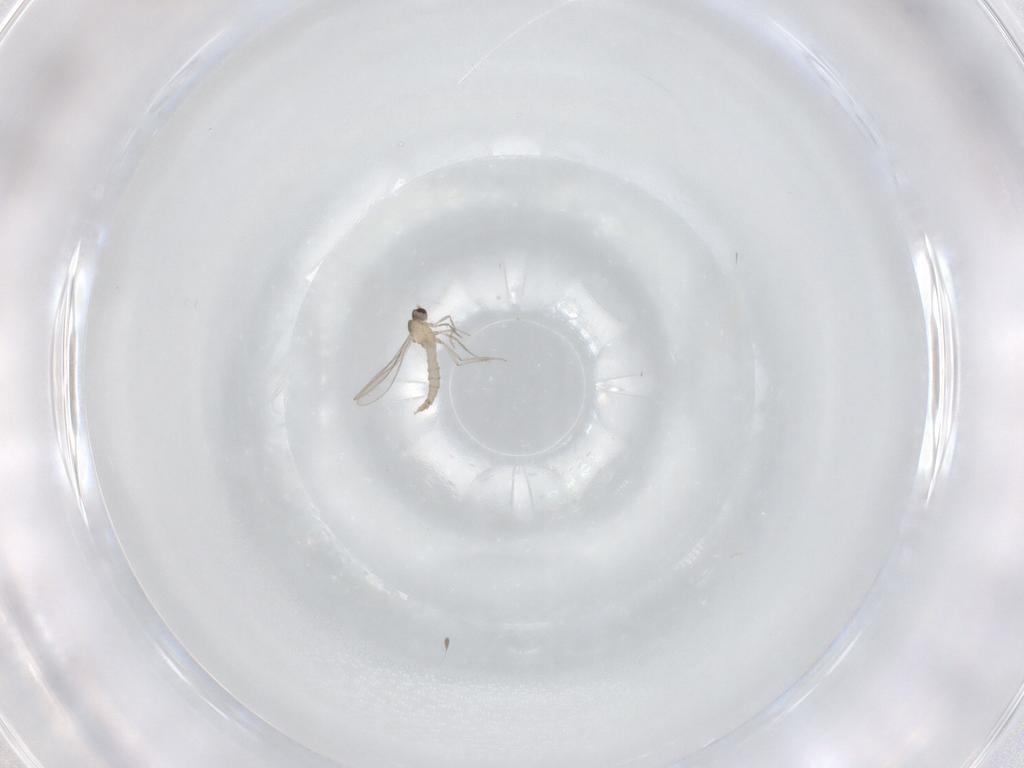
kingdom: Animalia
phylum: Arthropoda
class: Insecta
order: Diptera
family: Cecidomyiidae
